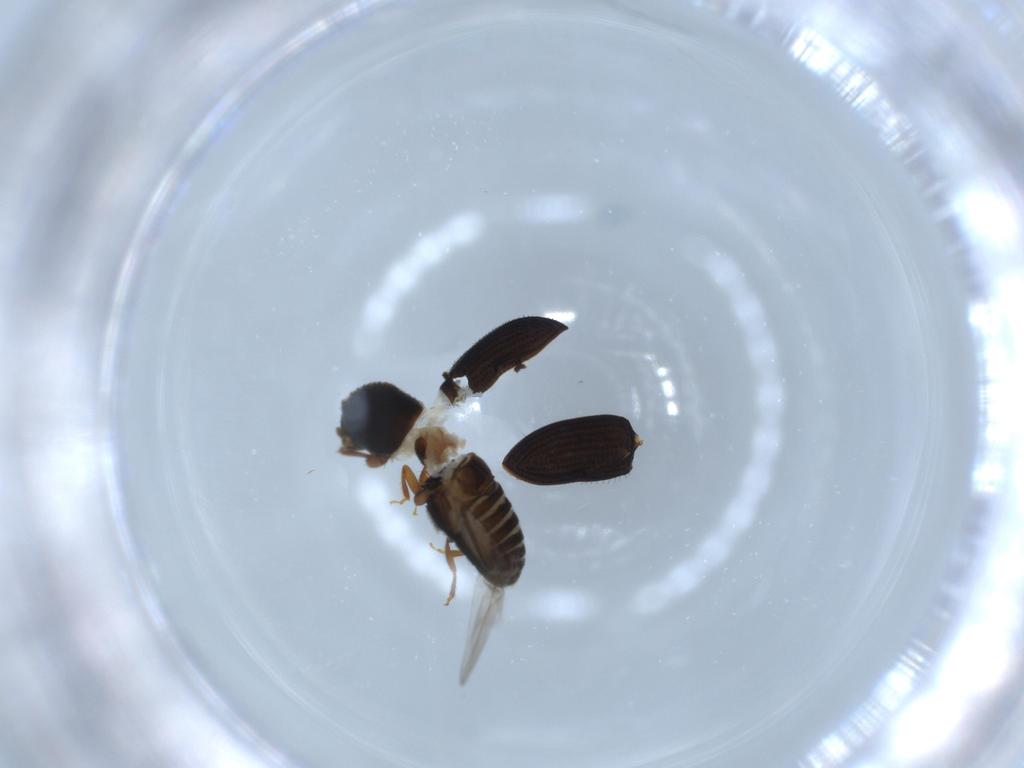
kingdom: Animalia
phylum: Arthropoda
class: Insecta
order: Coleoptera
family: Curculionidae
